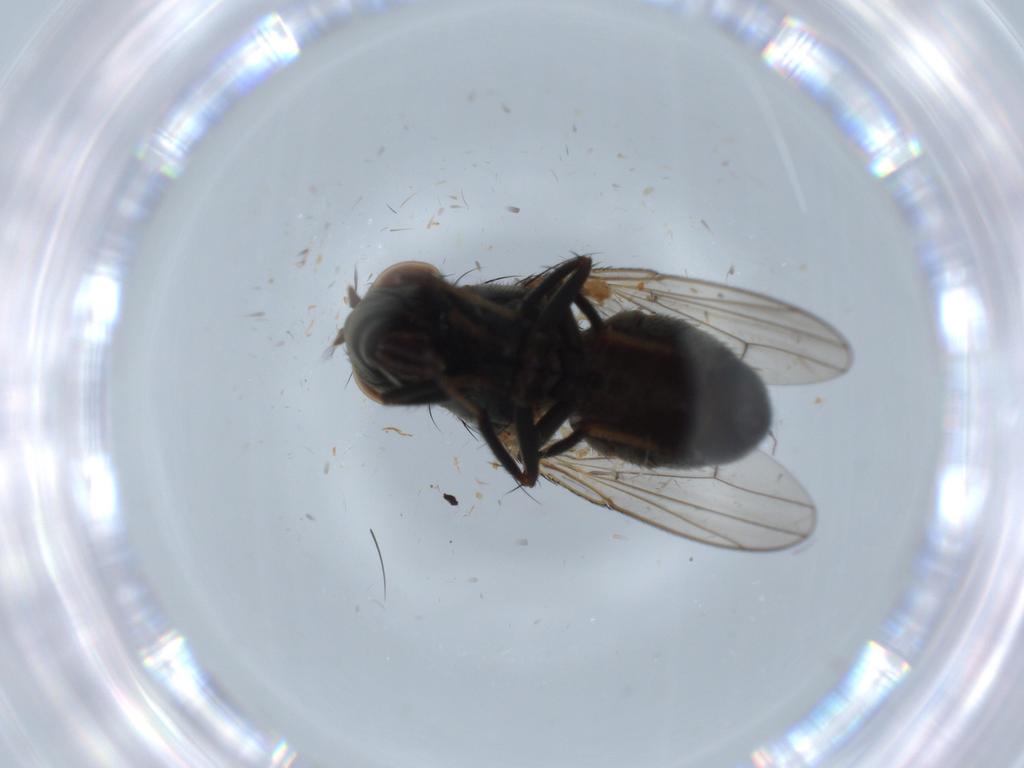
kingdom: Animalia
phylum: Arthropoda
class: Insecta
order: Diptera
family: Ephydridae
